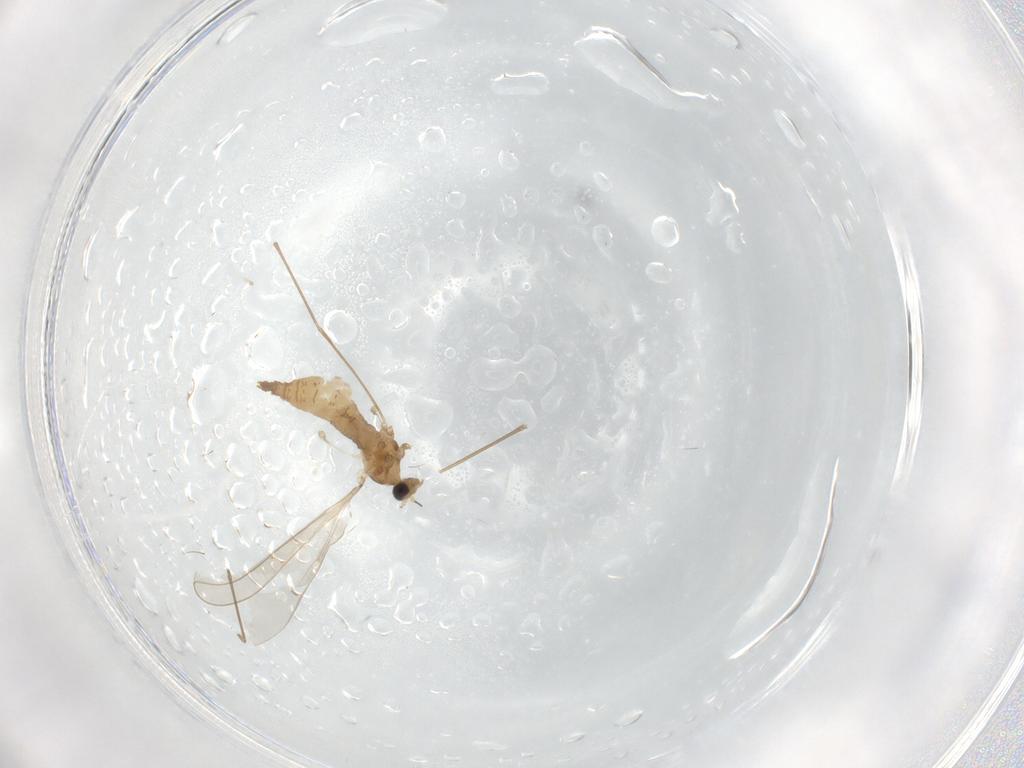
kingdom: Animalia
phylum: Arthropoda
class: Insecta
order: Diptera
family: Cecidomyiidae
